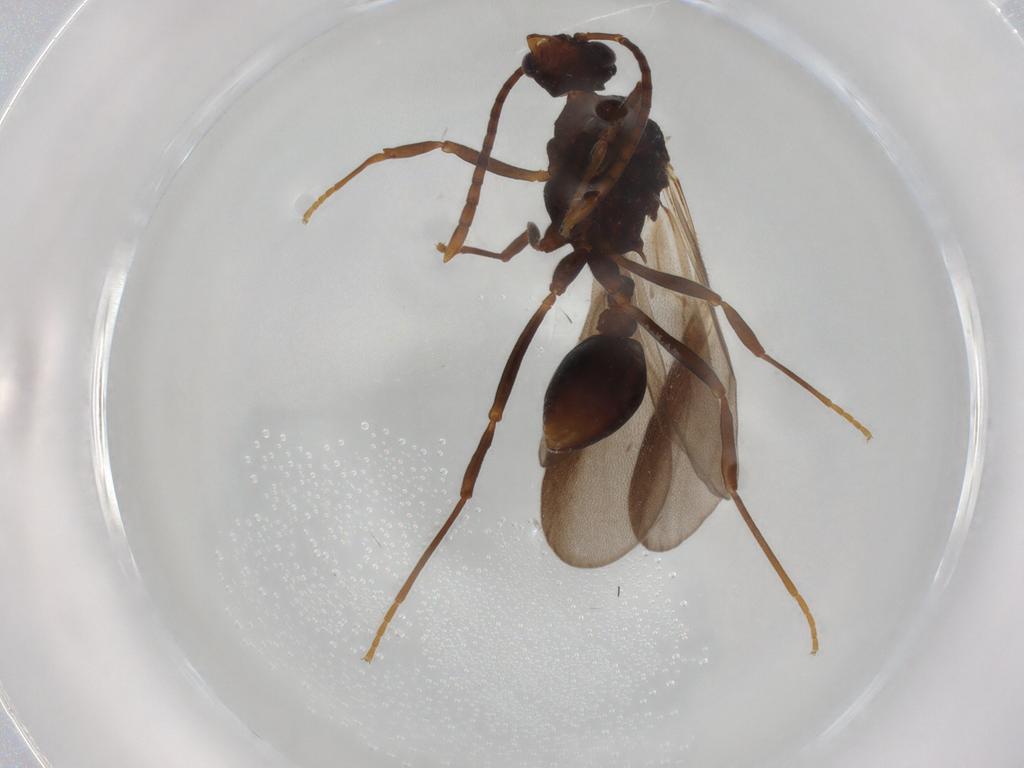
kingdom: Animalia
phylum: Arthropoda
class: Insecta
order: Hymenoptera
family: Formicidae
